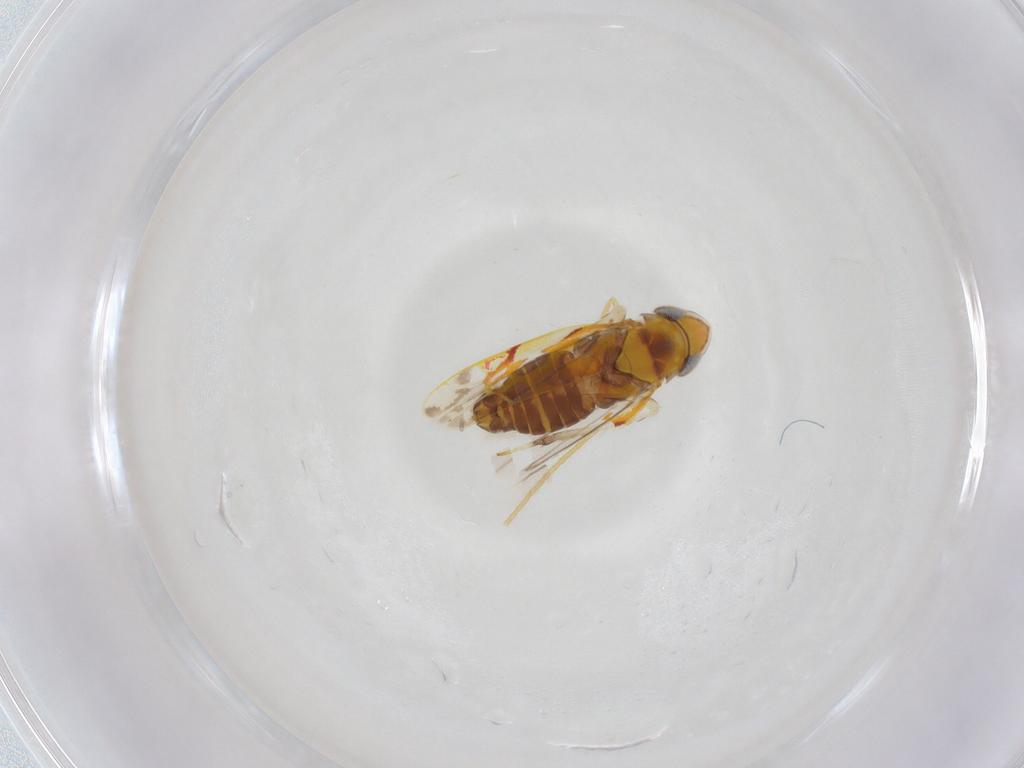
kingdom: Animalia
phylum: Arthropoda
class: Insecta
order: Hemiptera
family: Cicadellidae
